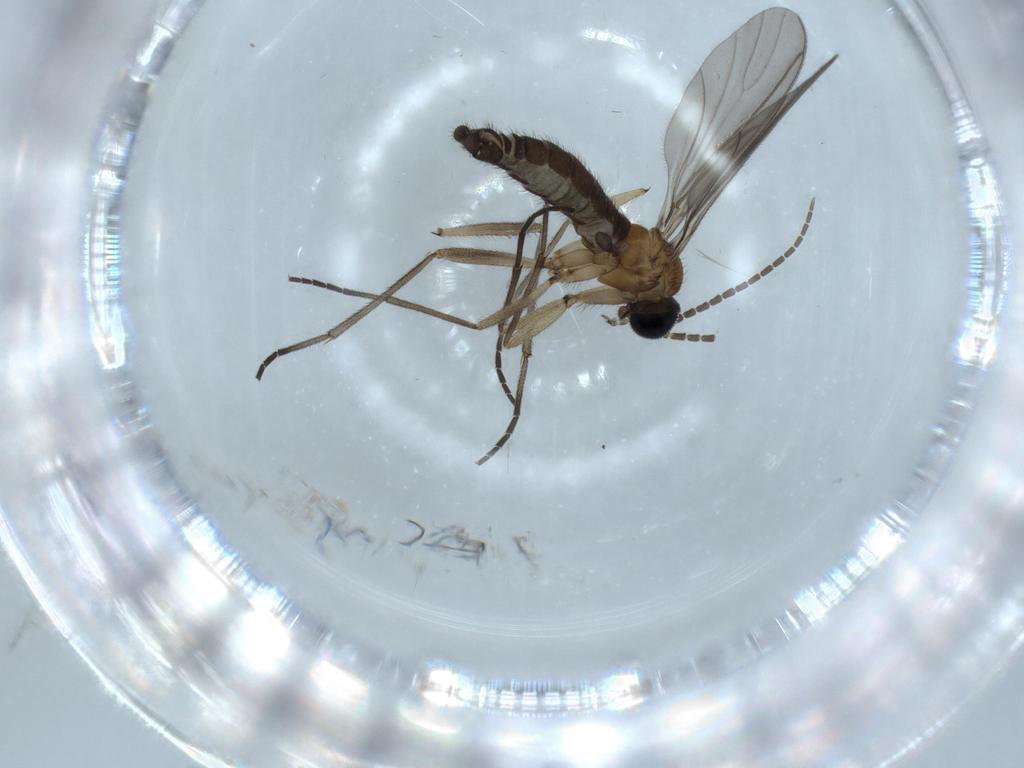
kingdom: Animalia
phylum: Arthropoda
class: Insecta
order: Diptera
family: Sciaridae
